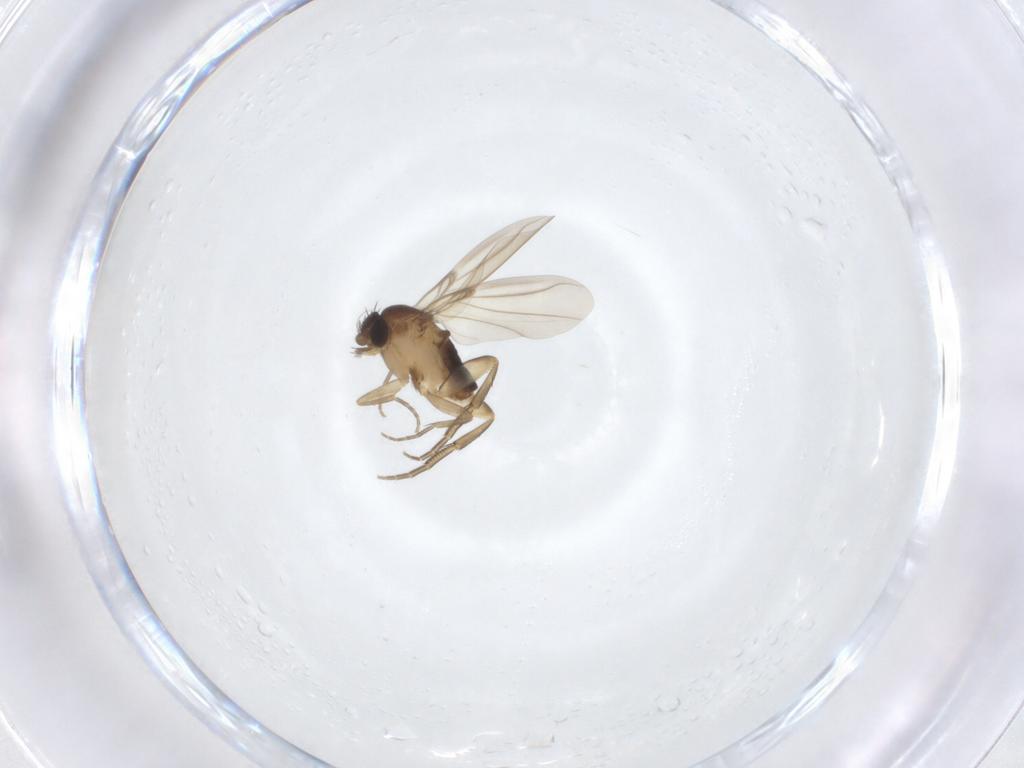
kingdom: Animalia
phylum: Arthropoda
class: Insecta
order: Diptera
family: Phoridae
